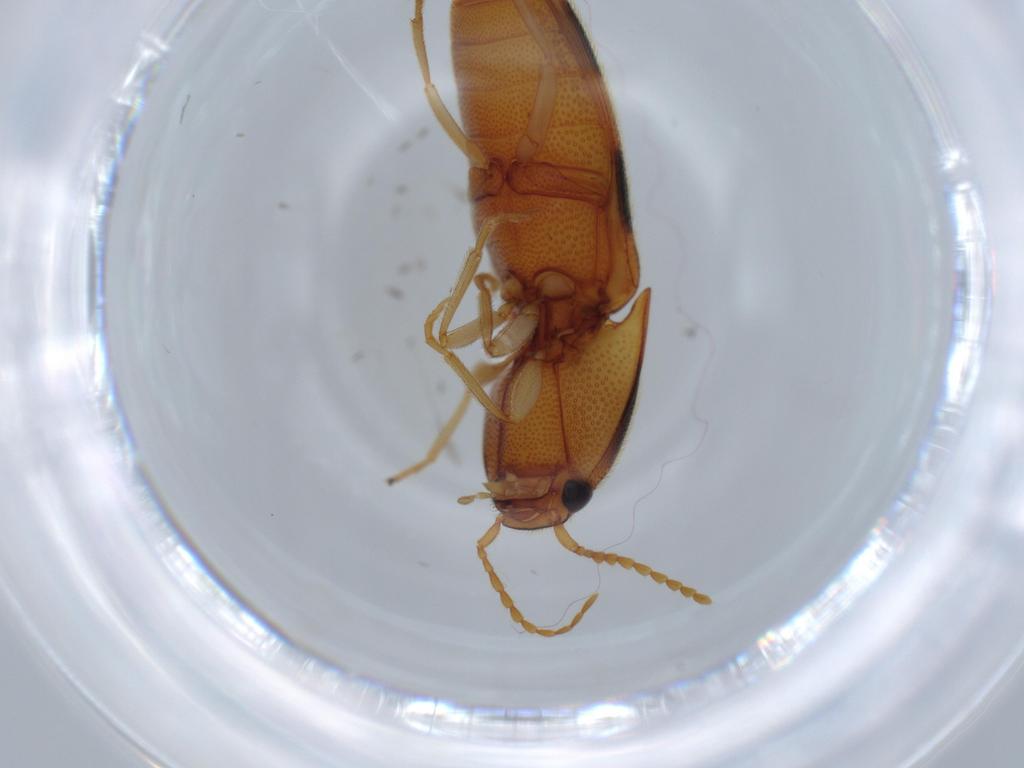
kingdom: Animalia
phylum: Arthropoda
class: Insecta
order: Coleoptera
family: Elateridae
